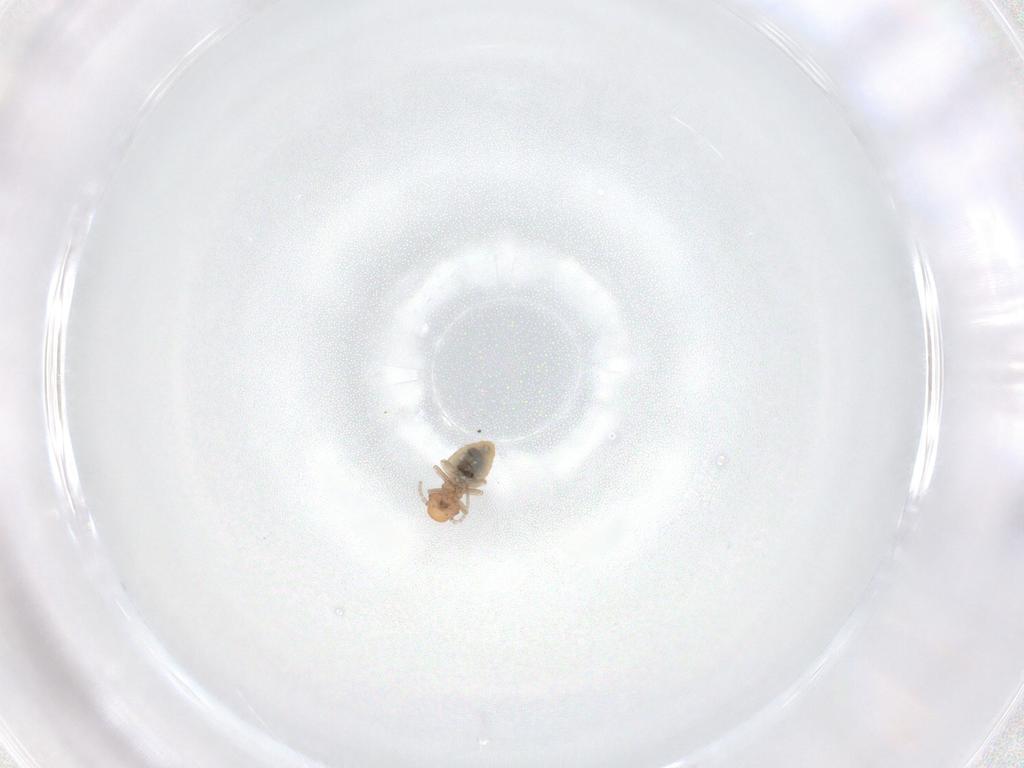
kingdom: Animalia
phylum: Arthropoda
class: Insecta
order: Psocodea
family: Caeciliusidae
